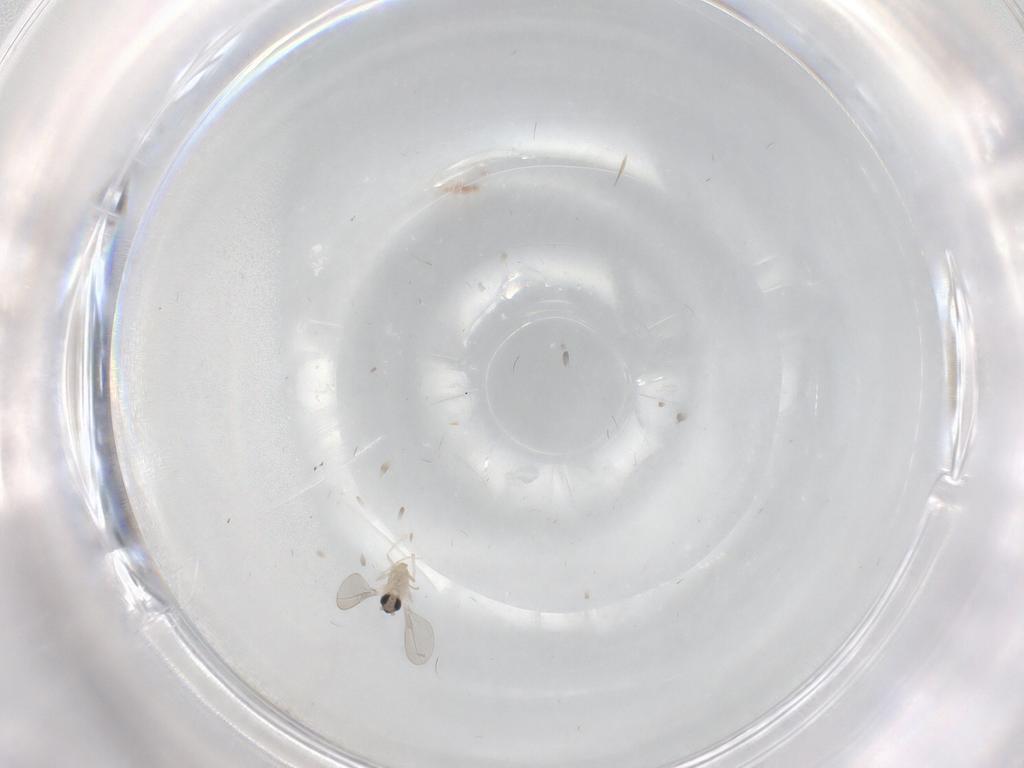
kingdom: Animalia
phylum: Arthropoda
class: Insecta
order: Diptera
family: Cecidomyiidae
